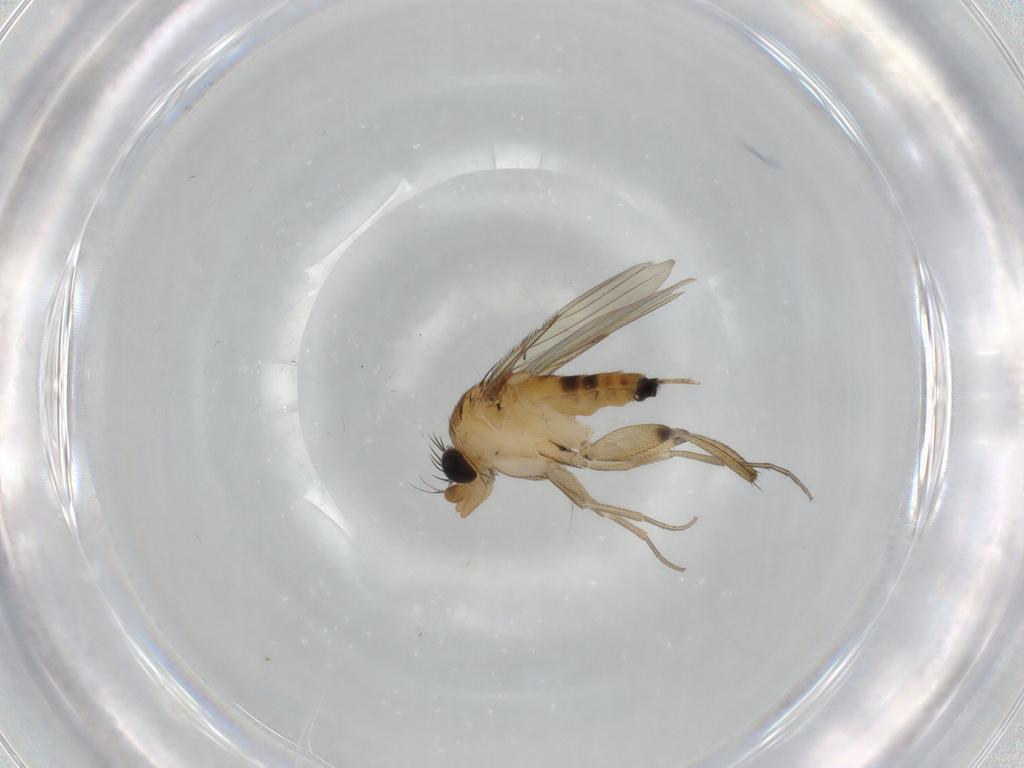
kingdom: Animalia
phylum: Arthropoda
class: Insecta
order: Diptera
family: Phoridae
